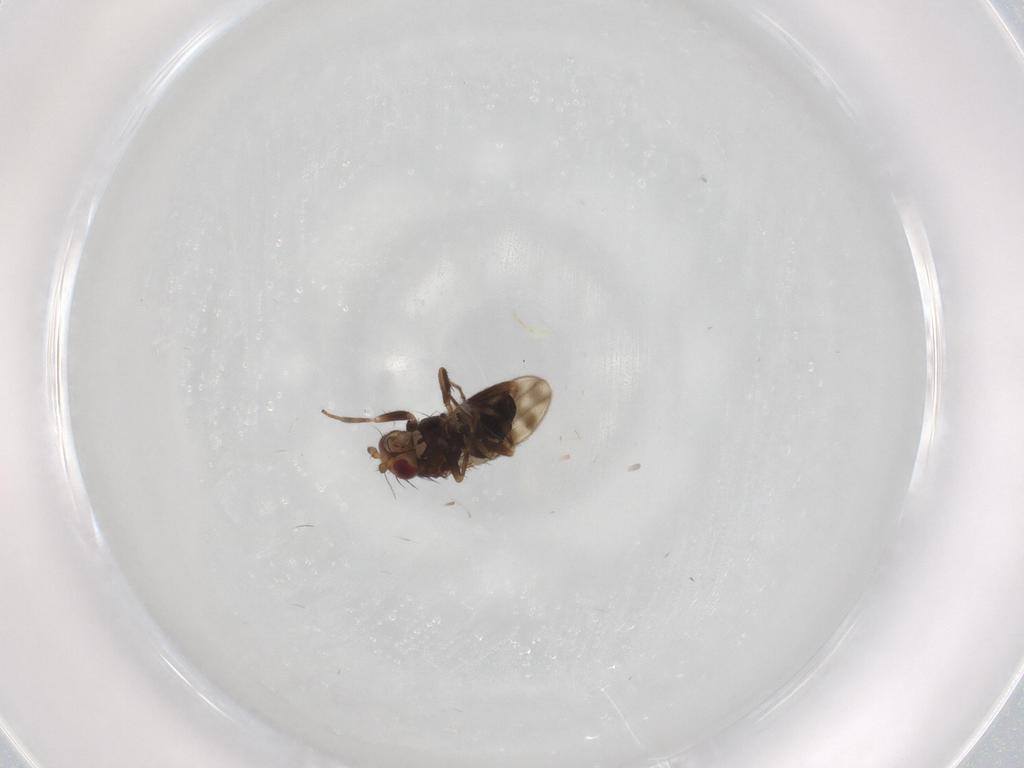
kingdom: Animalia
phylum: Arthropoda
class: Insecta
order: Diptera
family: Sphaeroceridae
